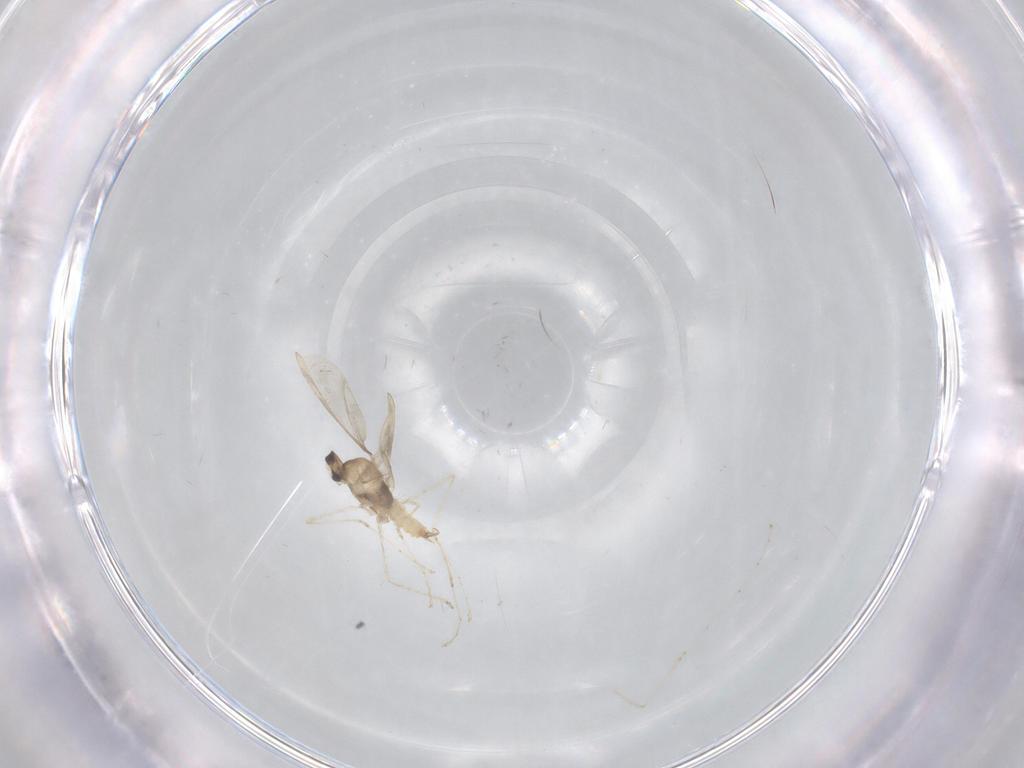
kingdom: Animalia
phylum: Arthropoda
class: Insecta
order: Diptera
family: Cecidomyiidae
